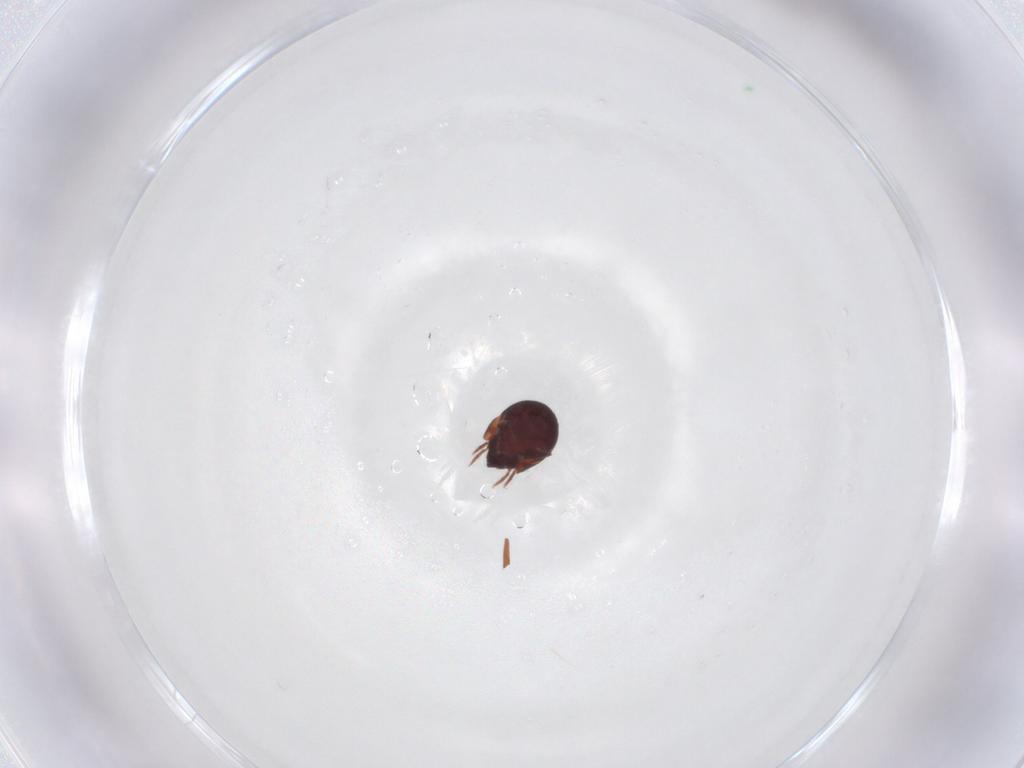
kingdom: Animalia
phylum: Arthropoda
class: Arachnida
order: Sarcoptiformes
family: Humerobatidae
